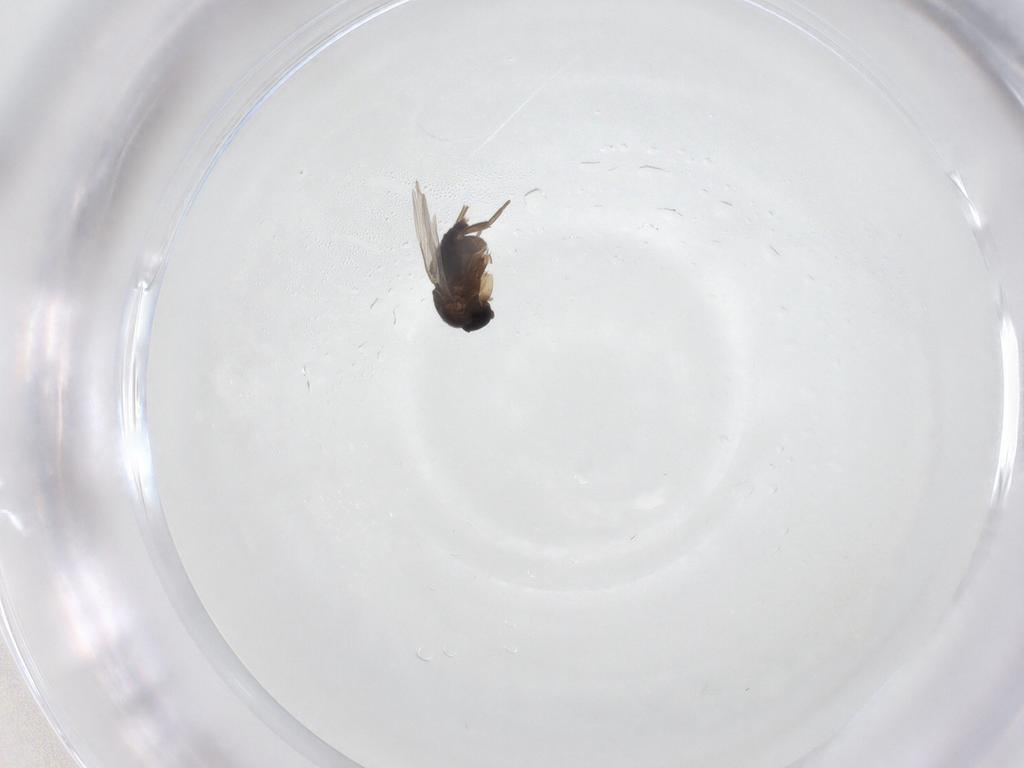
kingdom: Animalia
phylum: Arthropoda
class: Insecta
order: Diptera
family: Phoridae
